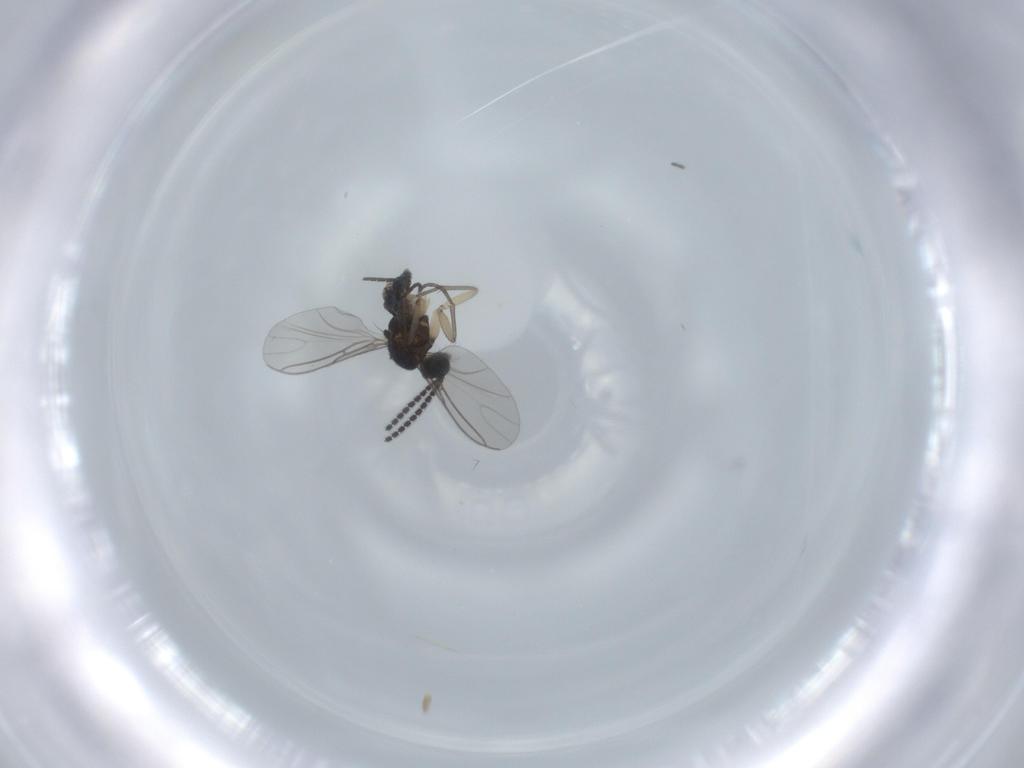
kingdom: Animalia
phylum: Arthropoda
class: Insecta
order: Diptera
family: Sciaridae
